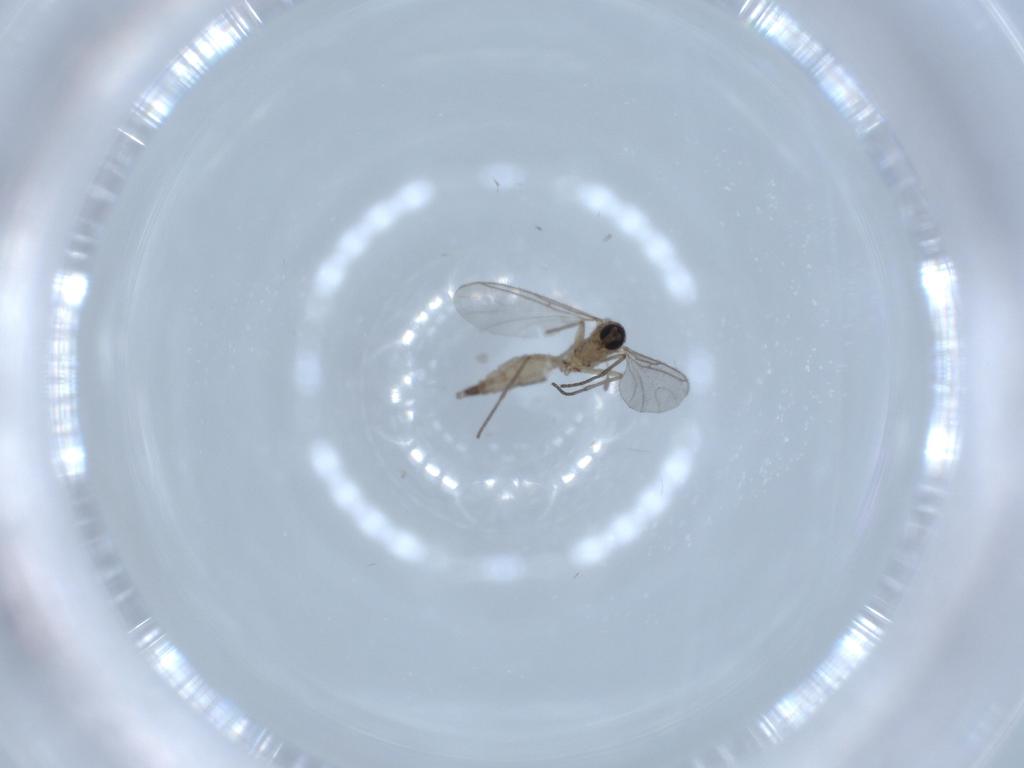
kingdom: Animalia
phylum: Arthropoda
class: Insecta
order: Diptera
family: Sciaridae
